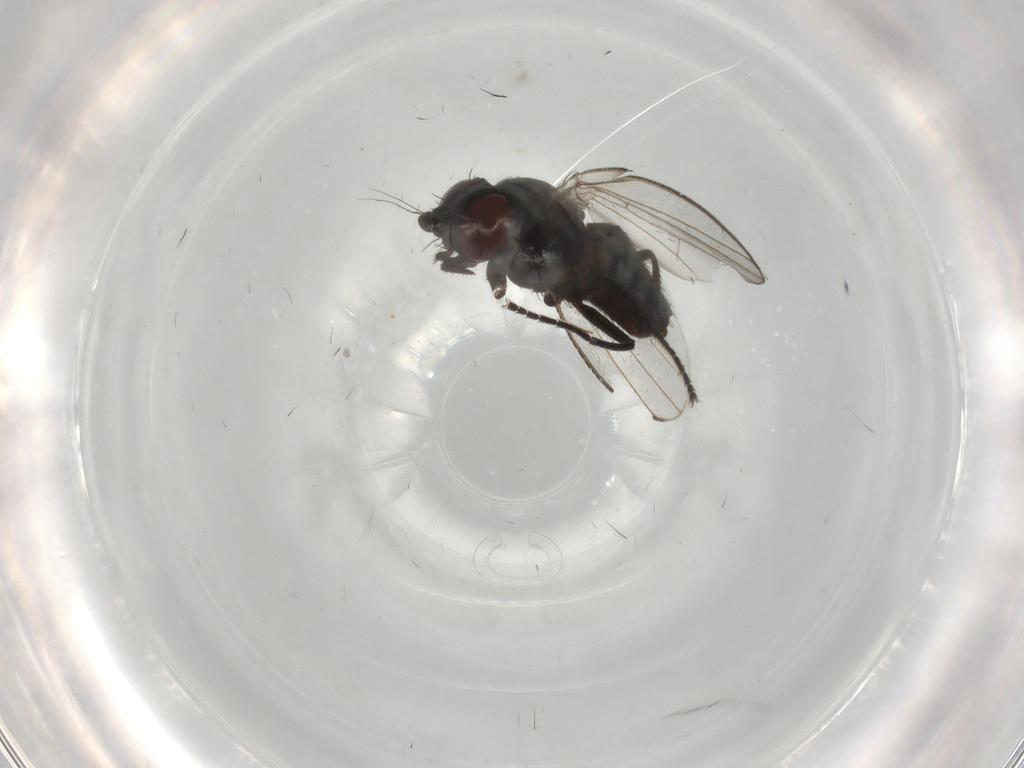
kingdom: Animalia
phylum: Arthropoda
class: Insecta
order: Diptera
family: Milichiidae
